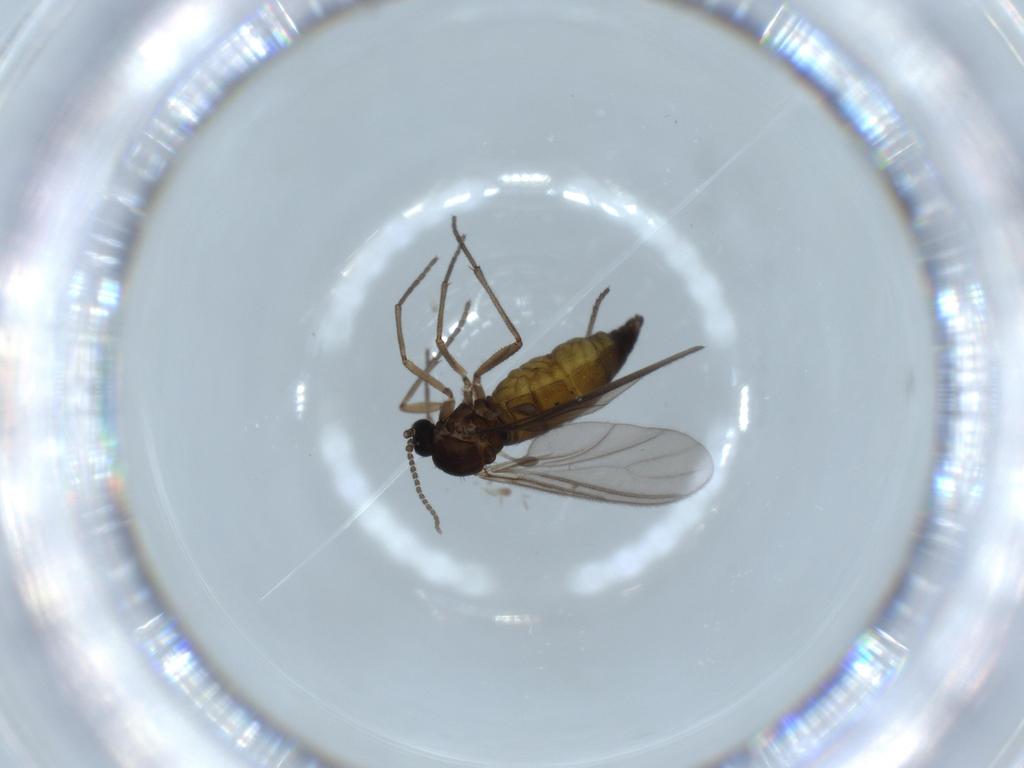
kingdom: Animalia
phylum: Arthropoda
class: Insecta
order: Diptera
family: Sciaridae
